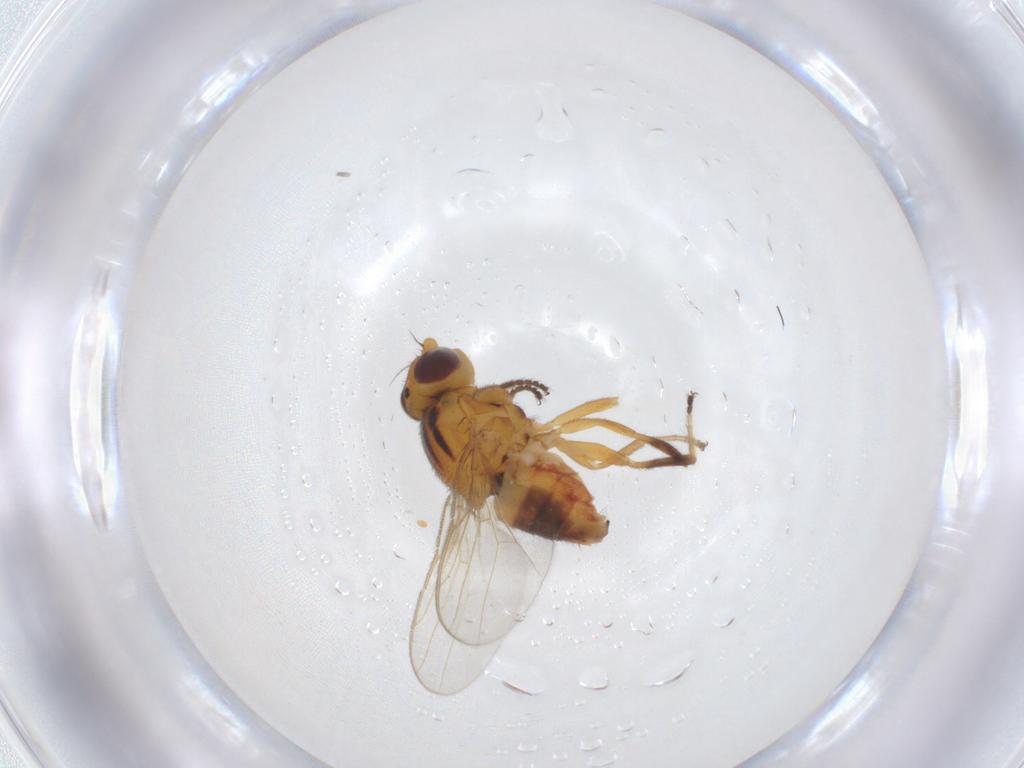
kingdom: Animalia
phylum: Arthropoda
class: Insecta
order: Diptera
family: Chloropidae
